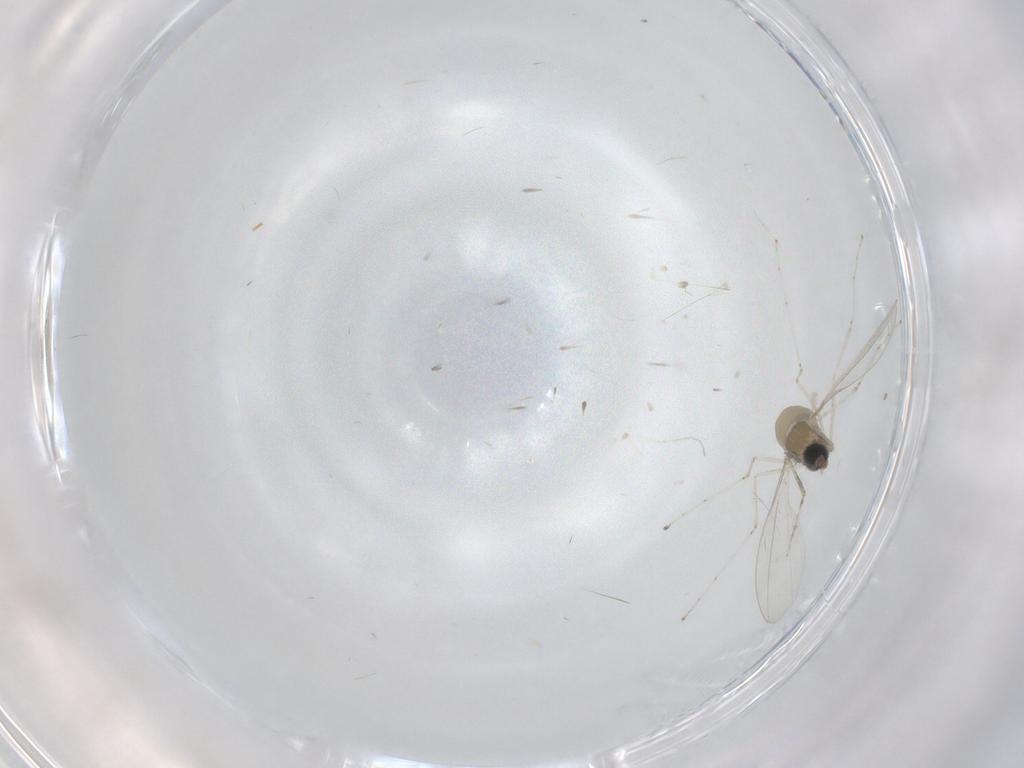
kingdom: Animalia
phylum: Arthropoda
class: Insecta
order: Diptera
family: Cecidomyiidae
